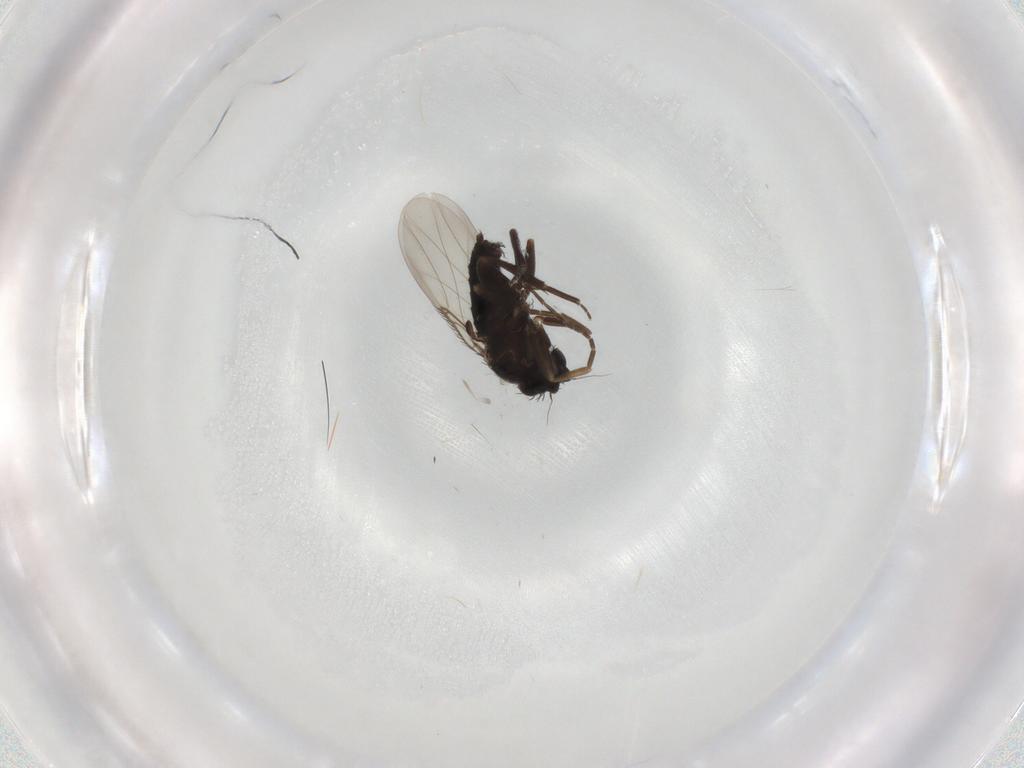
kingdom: Animalia
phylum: Arthropoda
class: Insecta
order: Diptera
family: Phoridae
